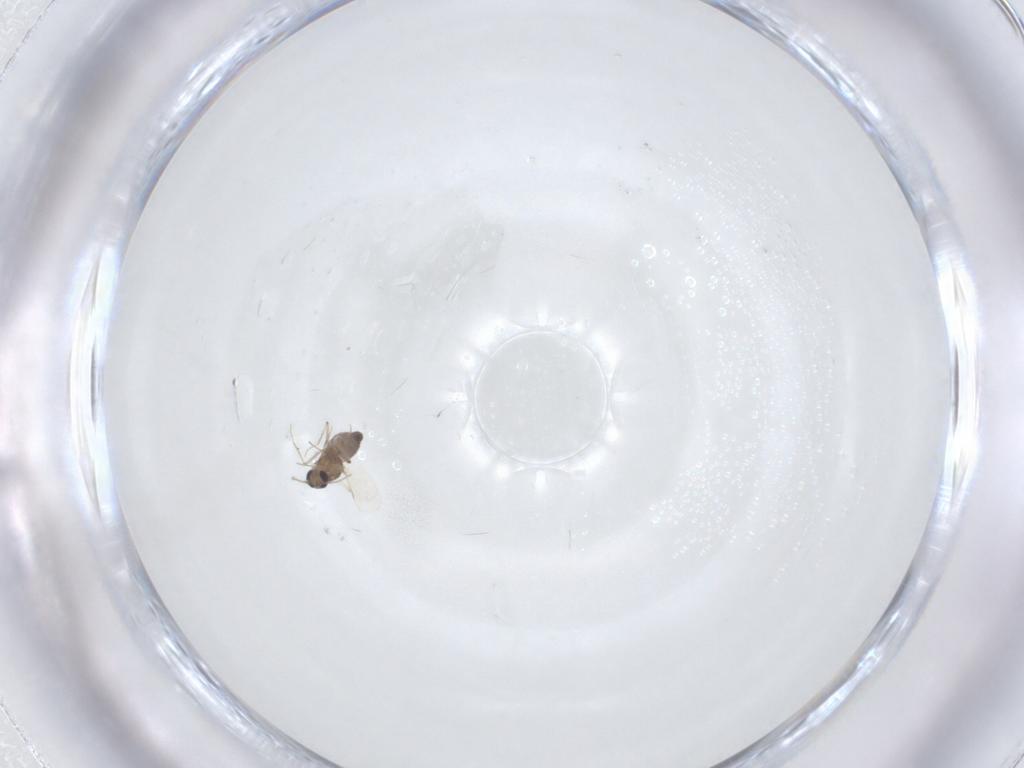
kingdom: Animalia
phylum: Arthropoda
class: Insecta
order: Diptera
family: Ceratopogonidae
